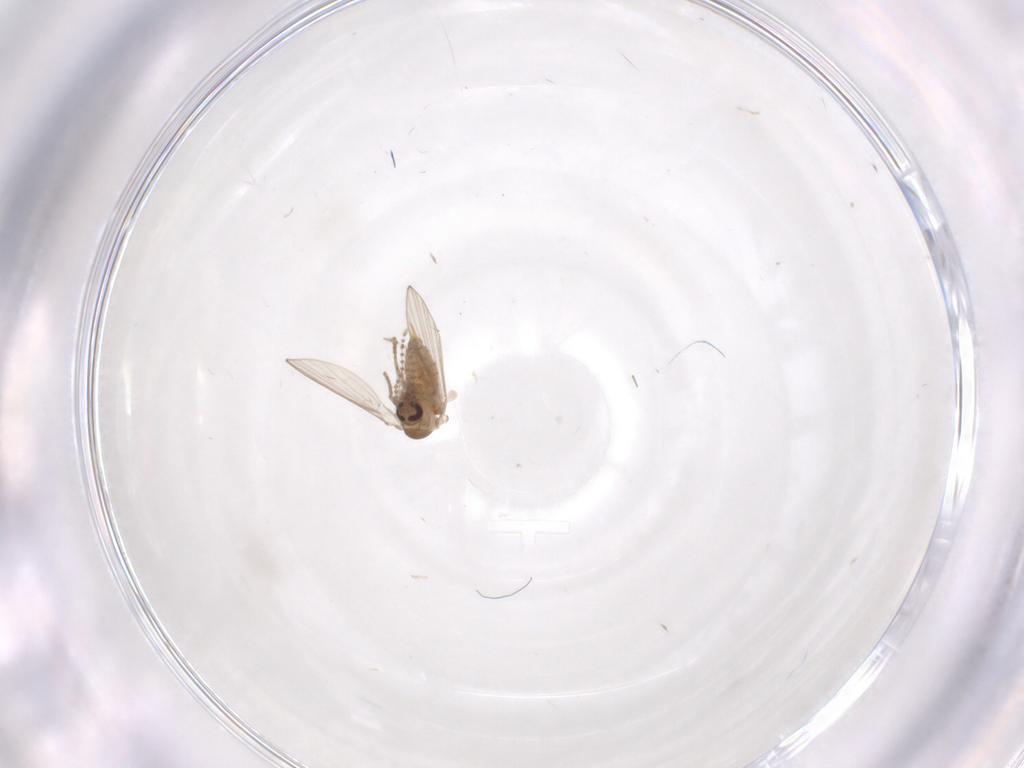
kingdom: Animalia
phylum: Arthropoda
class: Insecta
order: Diptera
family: Psychodidae
